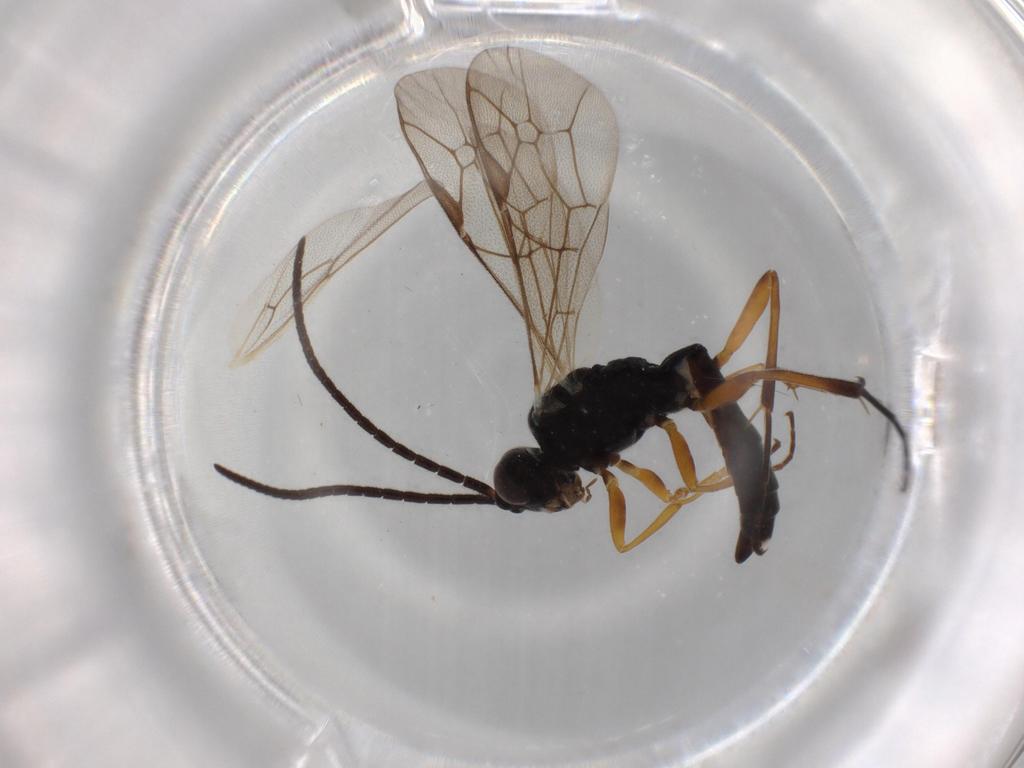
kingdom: Animalia
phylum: Arthropoda
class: Insecta
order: Hymenoptera
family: Ichneumonidae
